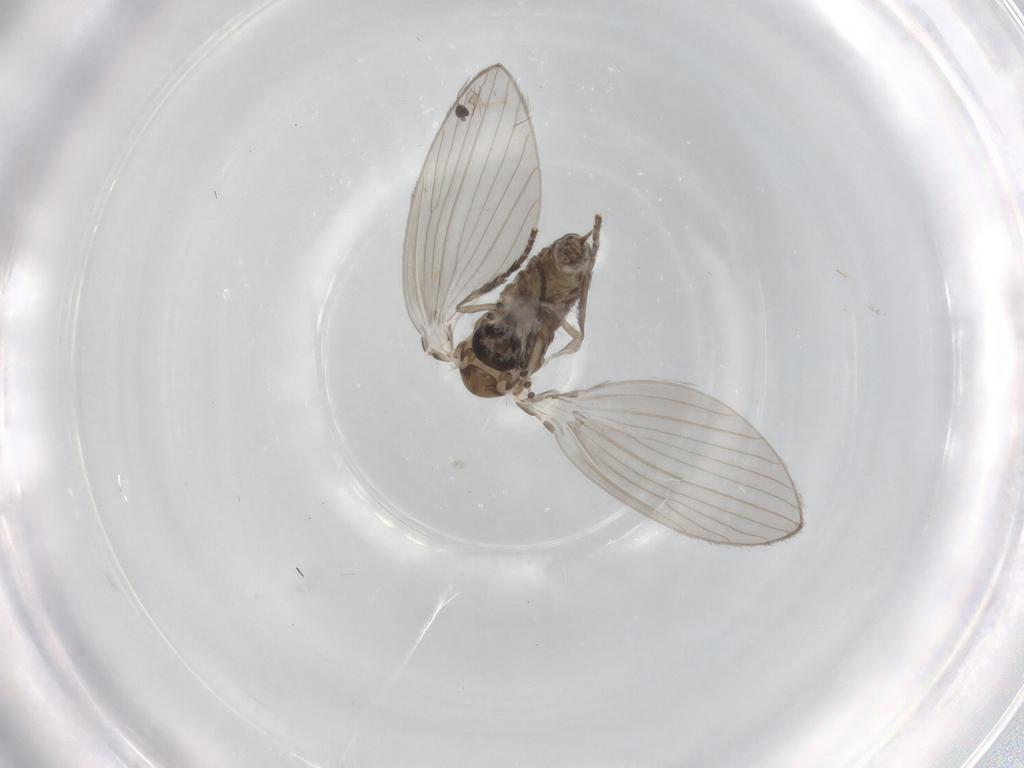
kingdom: Animalia
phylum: Arthropoda
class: Insecta
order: Diptera
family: Psychodidae
